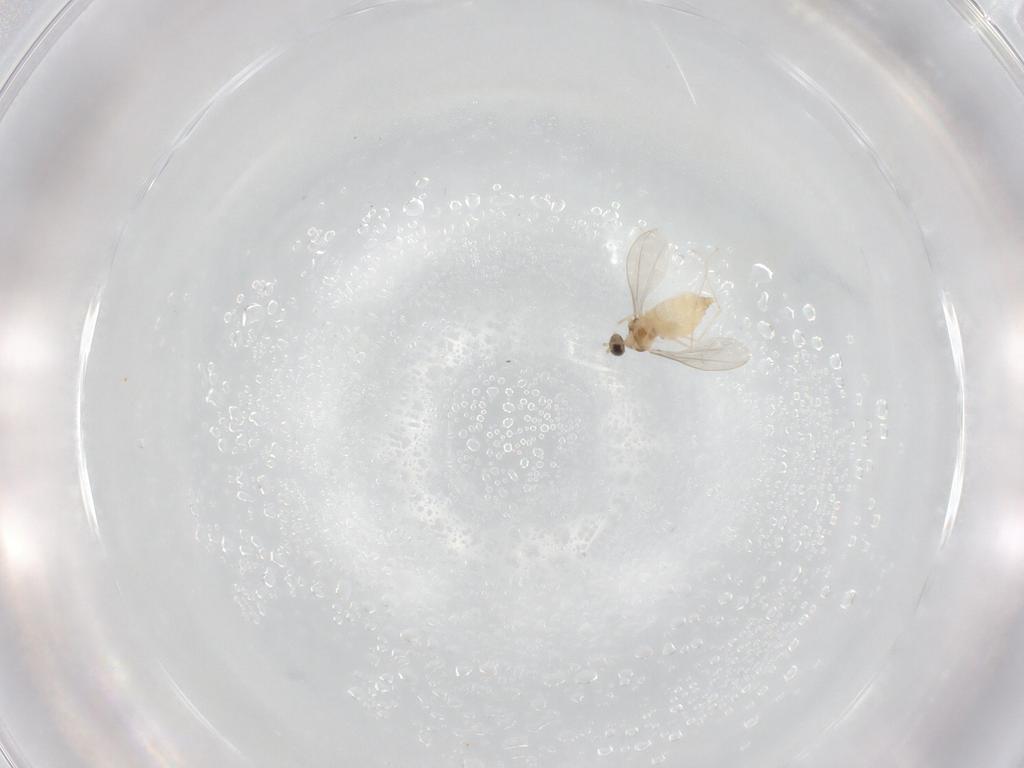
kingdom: Animalia
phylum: Arthropoda
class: Insecta
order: Diptera
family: Cecidomyiidae
